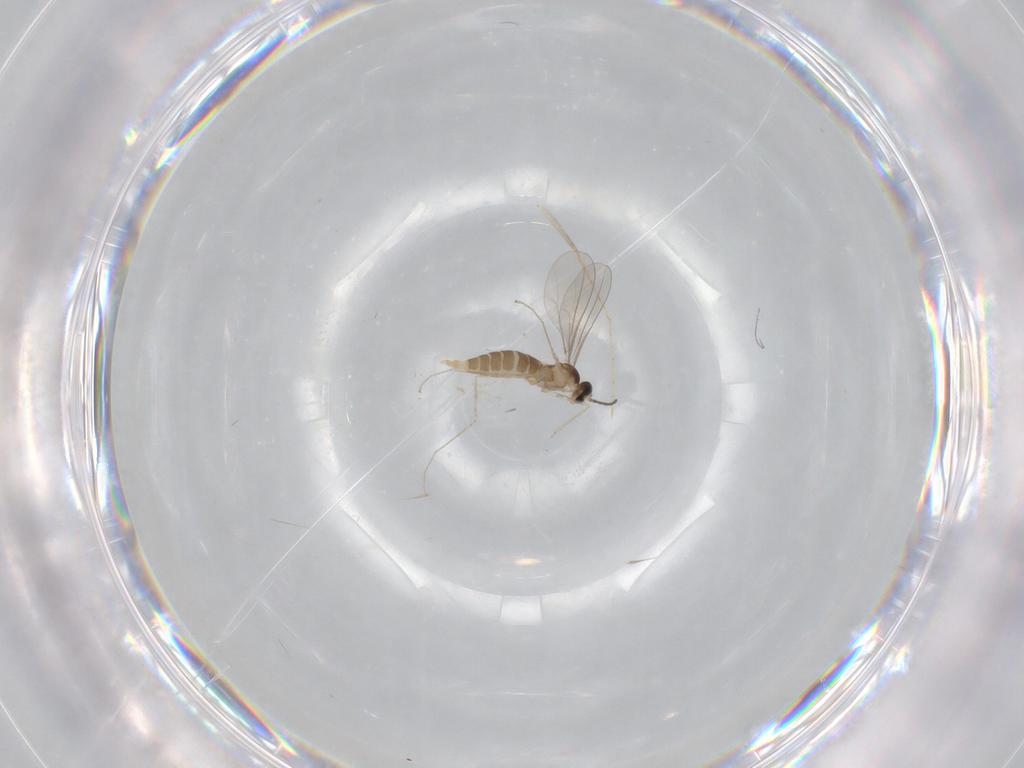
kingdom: Animalia
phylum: Arthropoda
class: Insecta
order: Diptera
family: Cecidomyiidae
